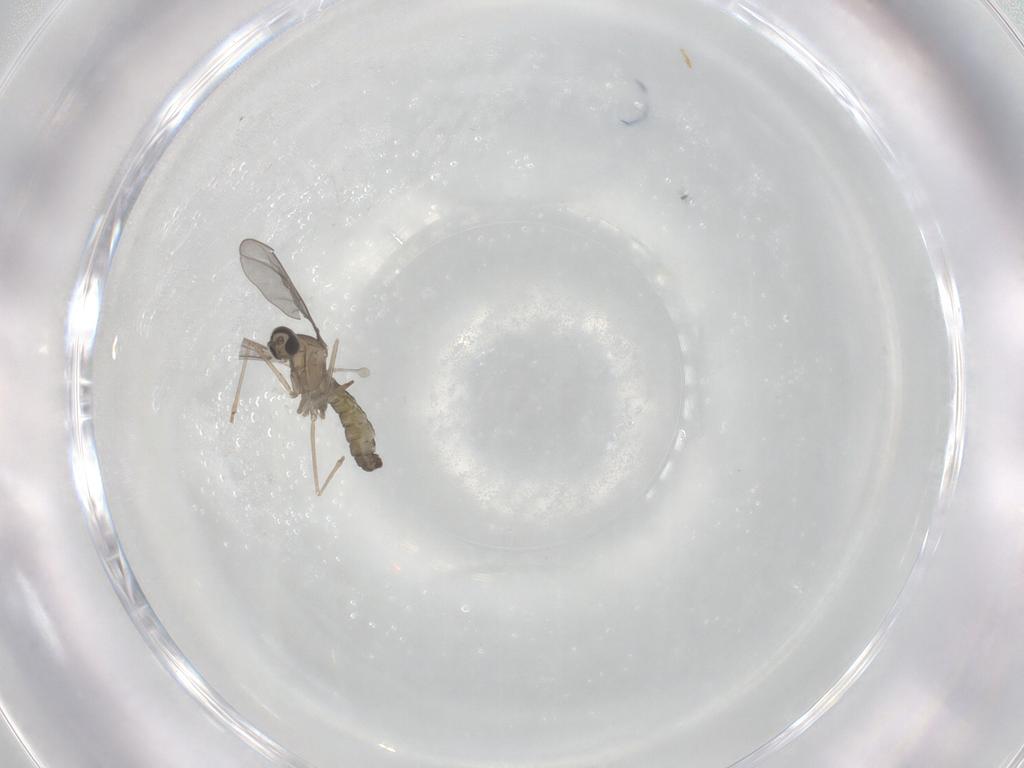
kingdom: Animalia
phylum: Arthropoda
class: Insecta
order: Diptera
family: Cecidomyiidae
